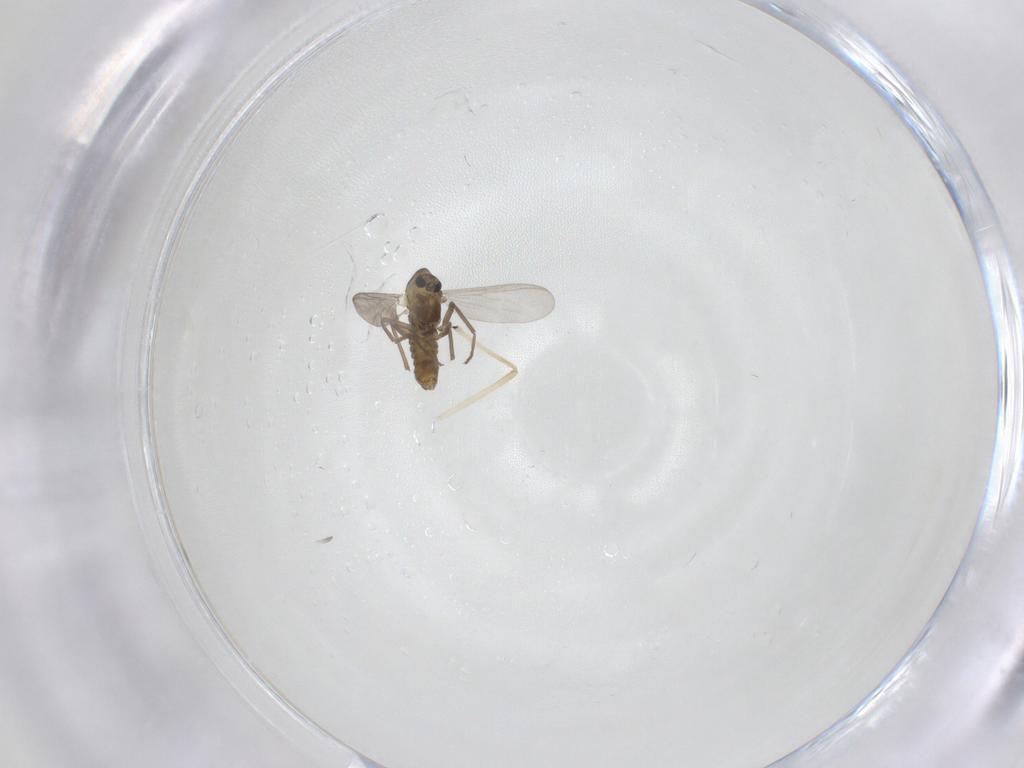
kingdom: Animalia
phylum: Arthropoda
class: Insecta
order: Diptera
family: Chironomidae
